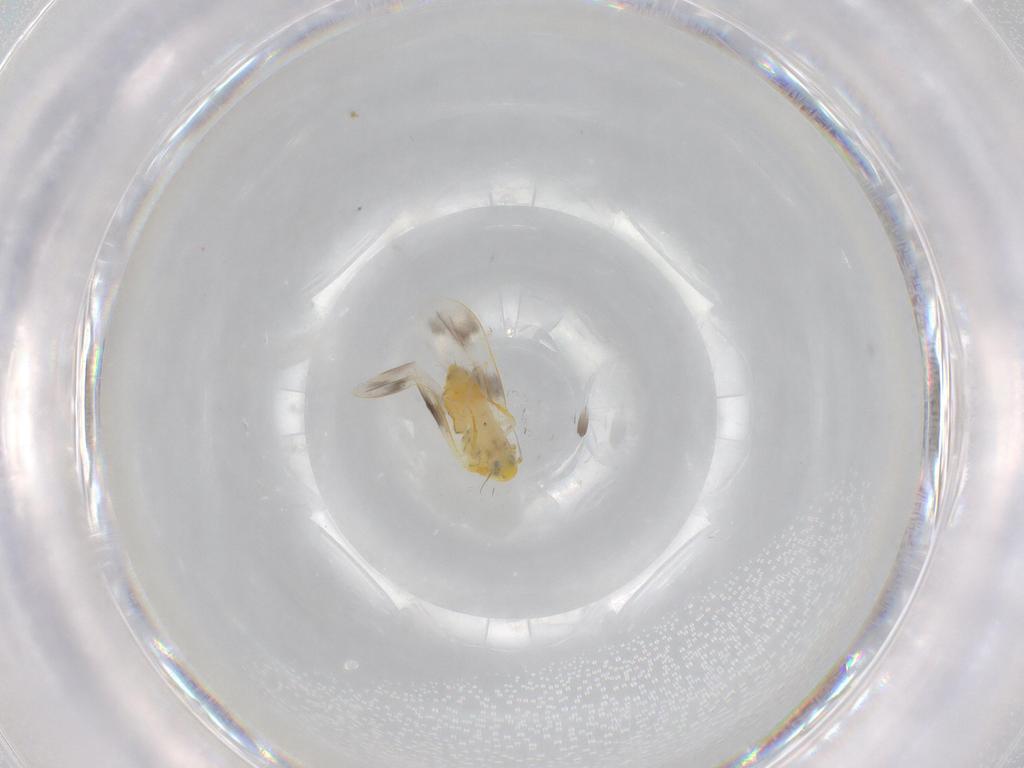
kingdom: Animalia
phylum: Arthropoda
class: Insecta
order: Hemiptera
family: Aleyrodidae
